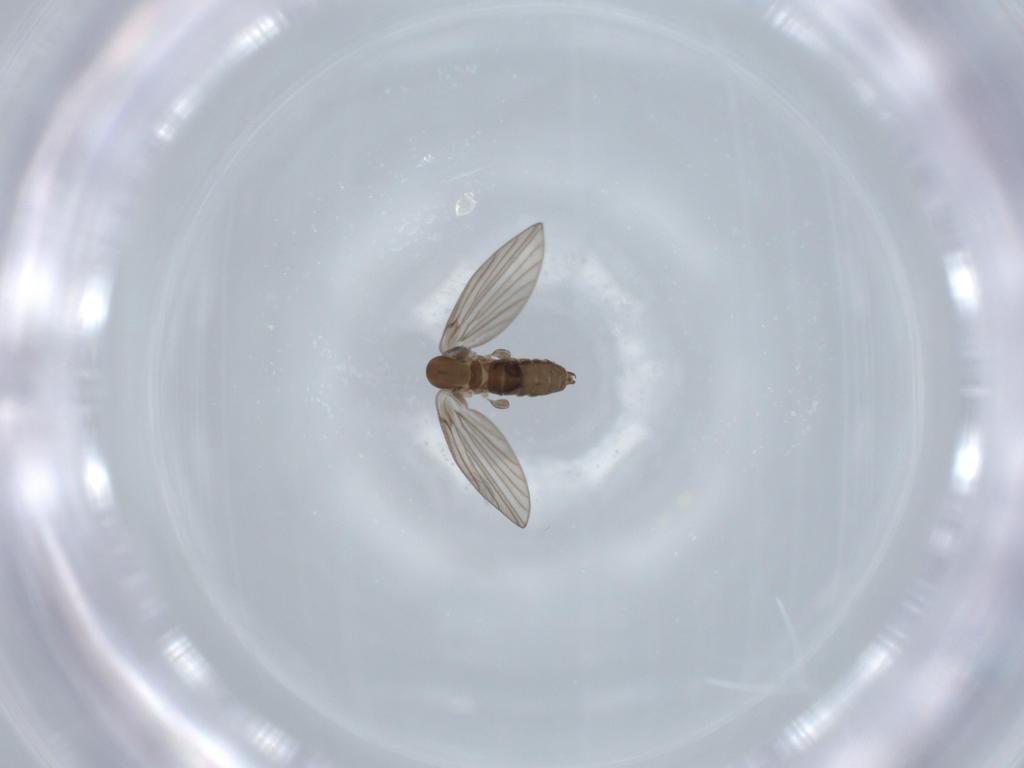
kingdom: Animalia
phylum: Arthropoda
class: Insecta
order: Diptera
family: Psychodidae
